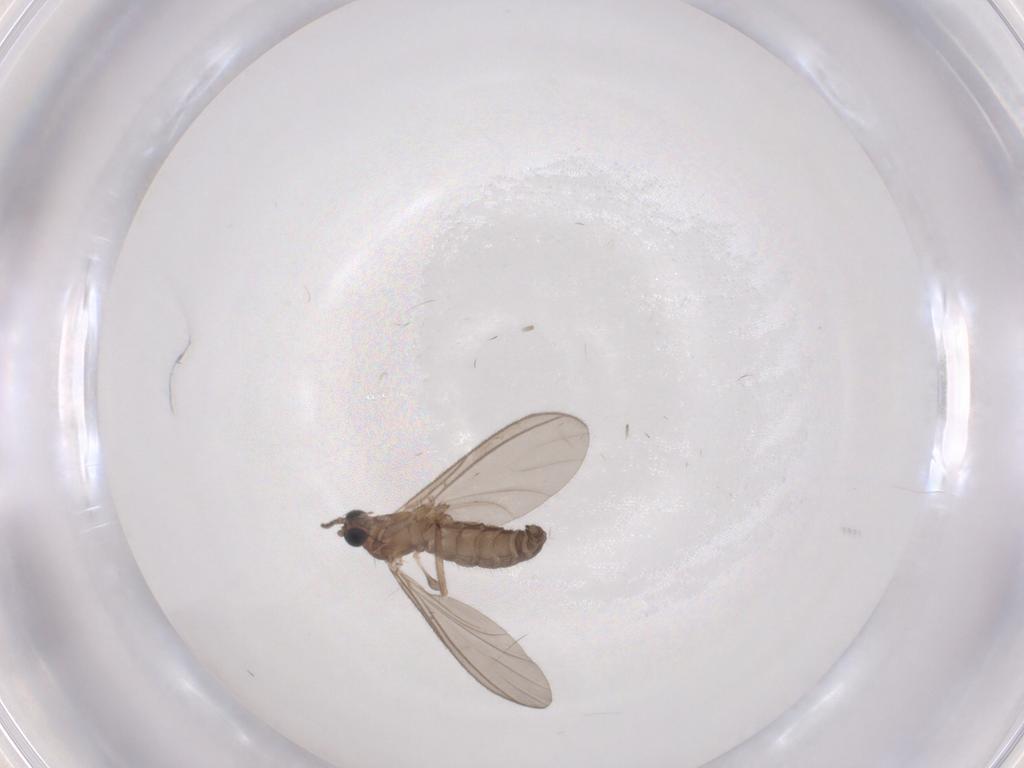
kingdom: Animalia
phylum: Arthropoda
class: Insecta
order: Diptera
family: Sciaridae
